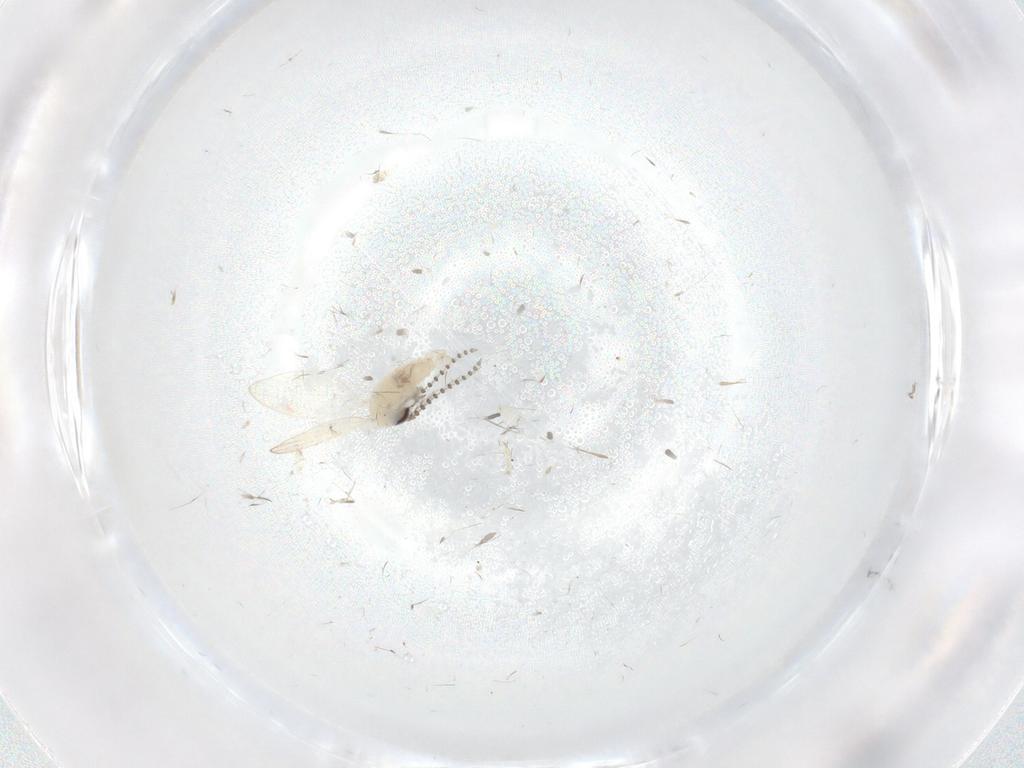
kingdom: Animalia
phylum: Arthropoda
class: Insecta
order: Diptera
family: Psychodidae
